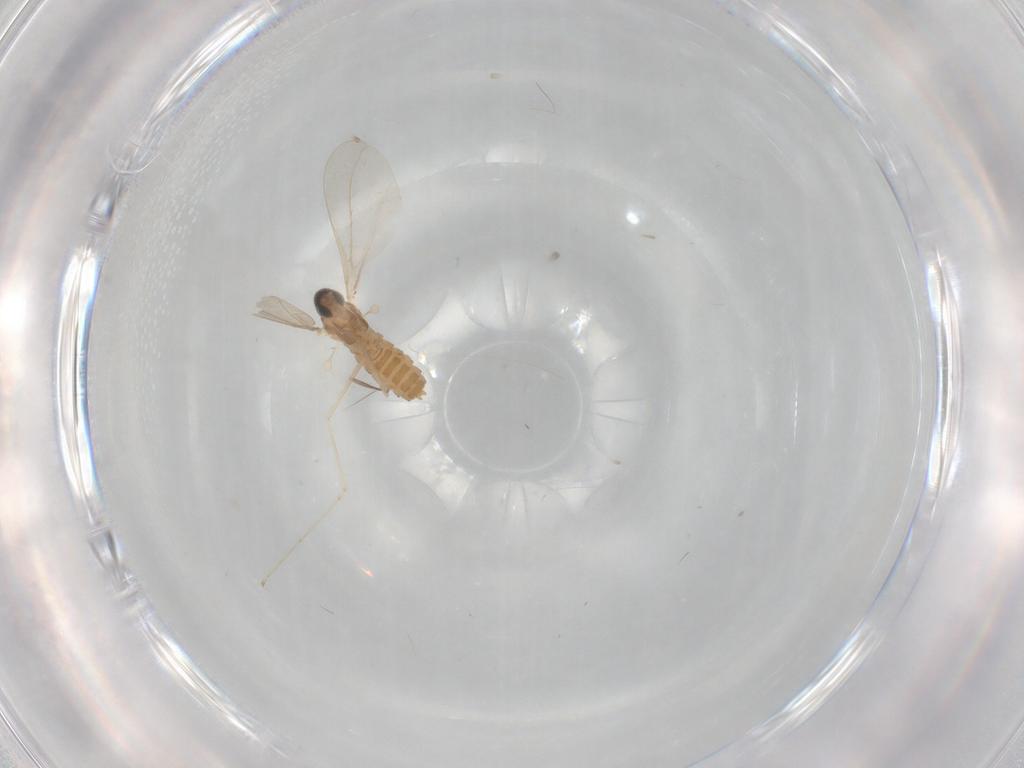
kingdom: Animalia
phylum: Arthropoda
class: Insecta
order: Diptera
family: Cecidomyiidae
